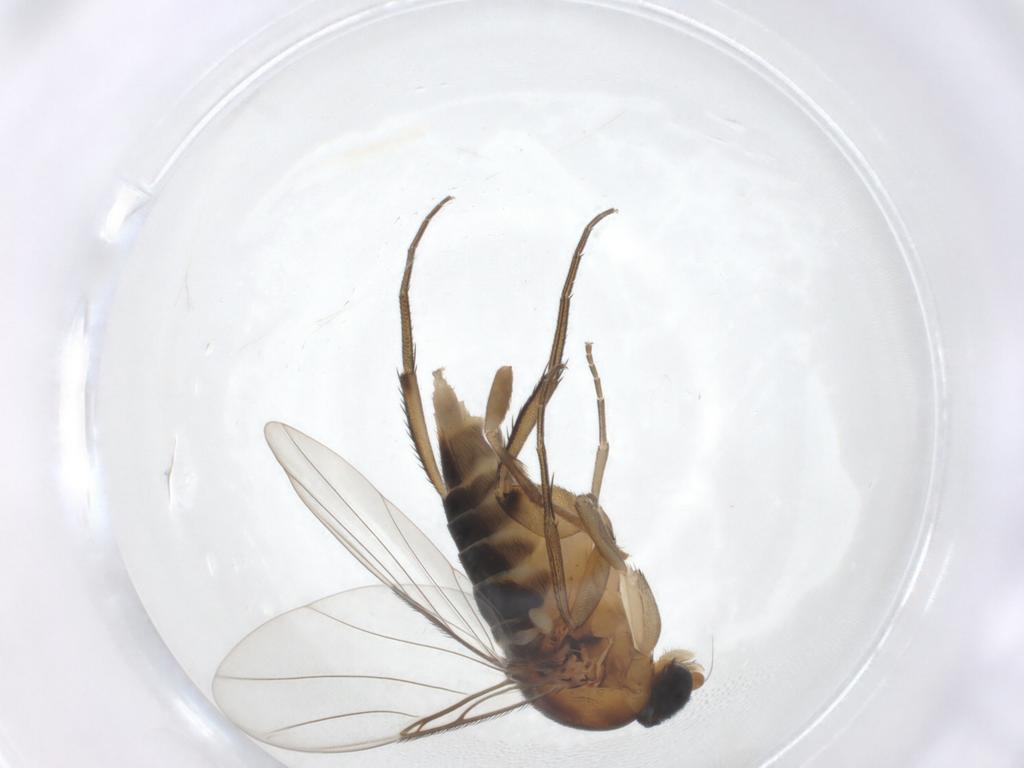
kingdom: Animalia
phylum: Arthropoda
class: Insecta
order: Diptera
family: Phoridae
